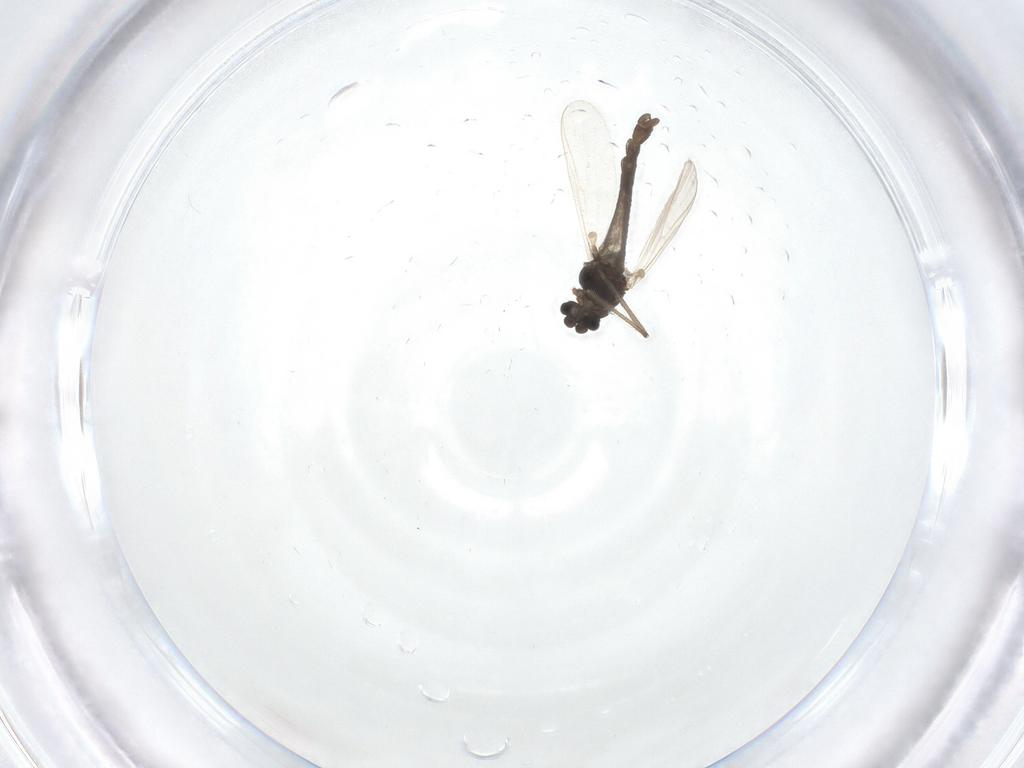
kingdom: Animalia
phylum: Arthropoda
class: Insecta
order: Diptera
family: Chironomidae
